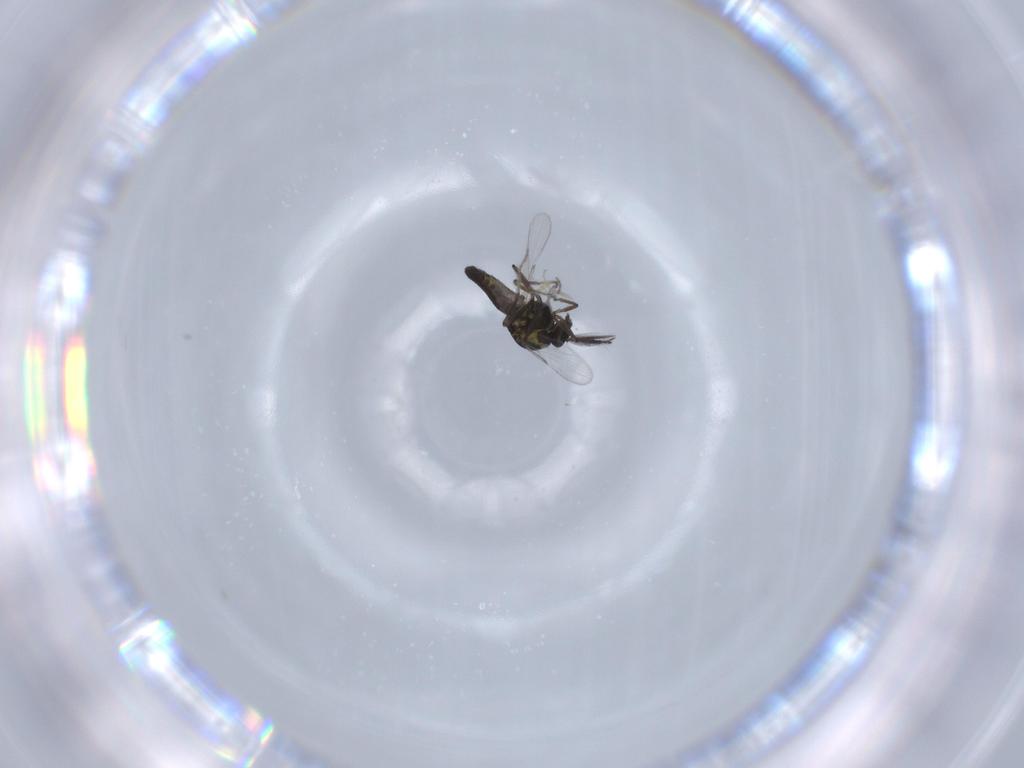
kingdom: Animalia
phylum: Arthropoda
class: Insecta
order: Diptera
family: Ceratopogonidae
